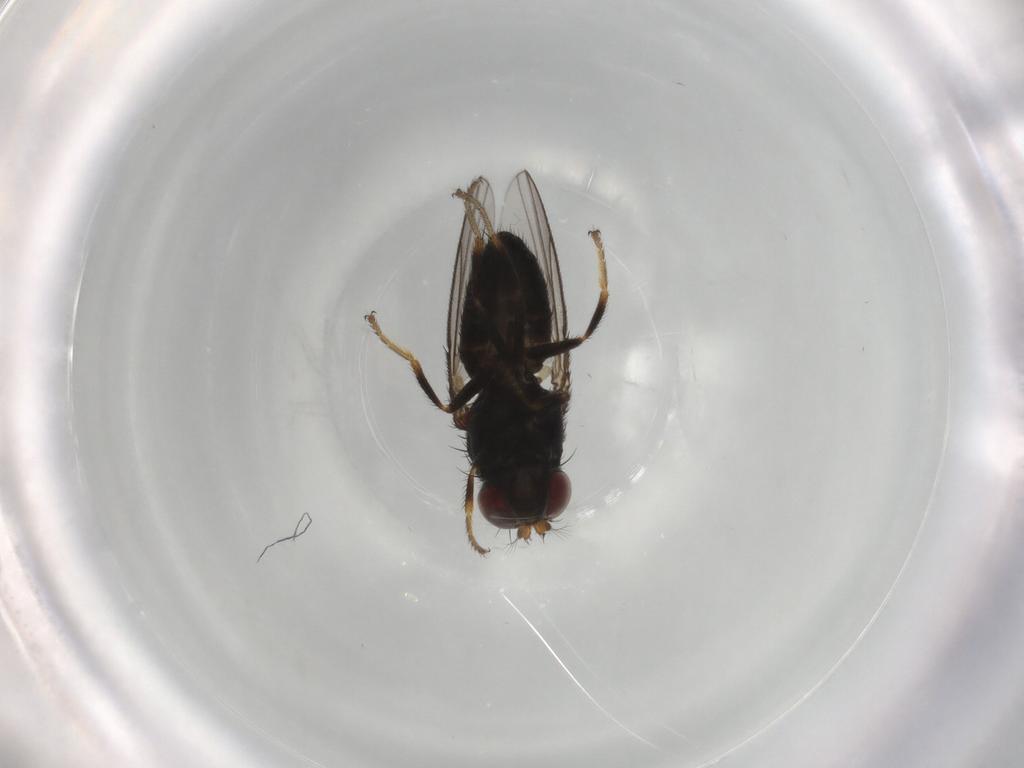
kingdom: Animalia
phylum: Arthropoda
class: Insecta
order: Diptera
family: Ephydridae
